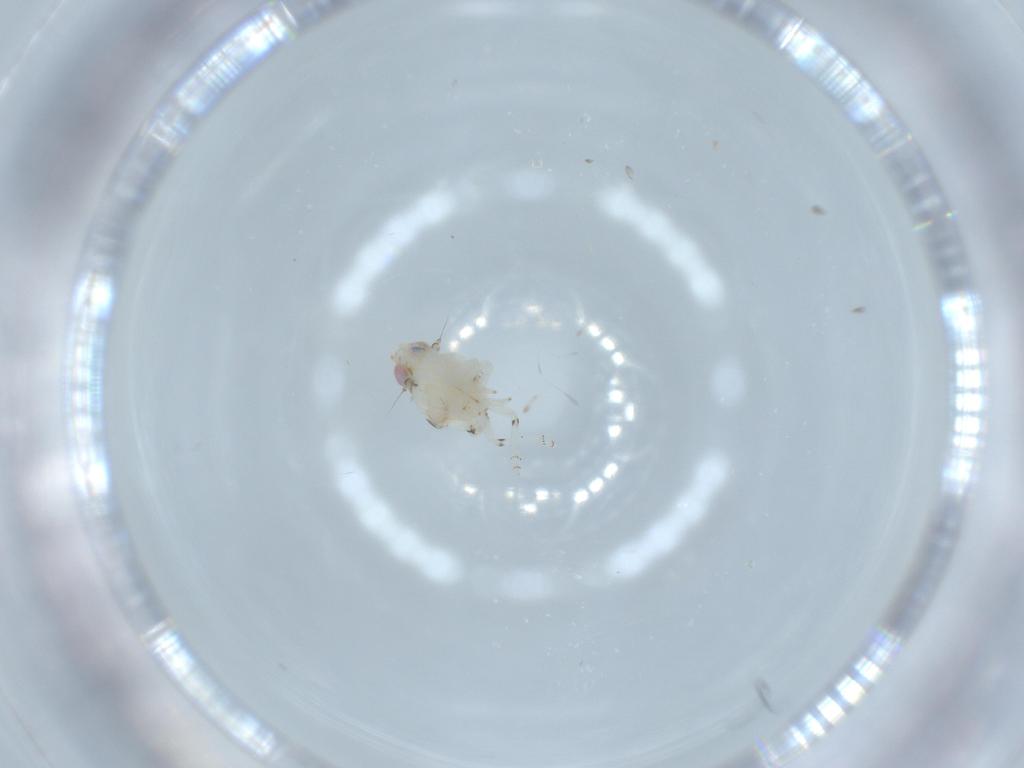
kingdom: Animalia
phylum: Arthropoda
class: Insecta
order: Hemiptera
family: Nogodinidae
